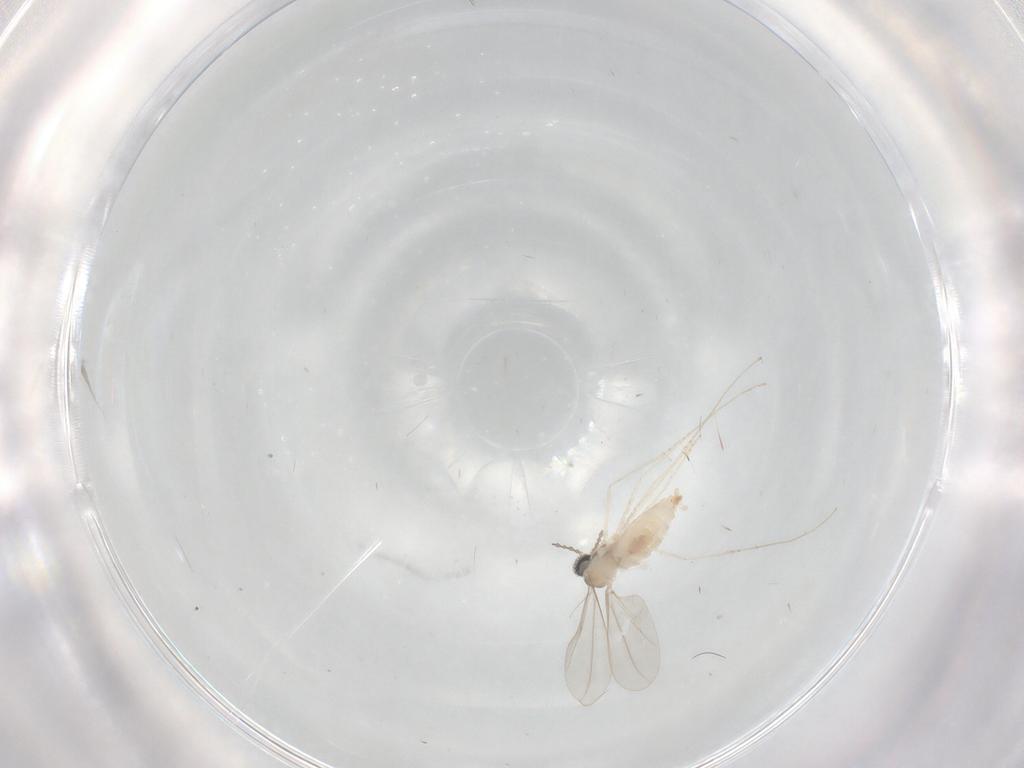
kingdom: Animalia
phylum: Arthropoda
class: Insecta
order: Diptera
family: Cecidomyiidae
